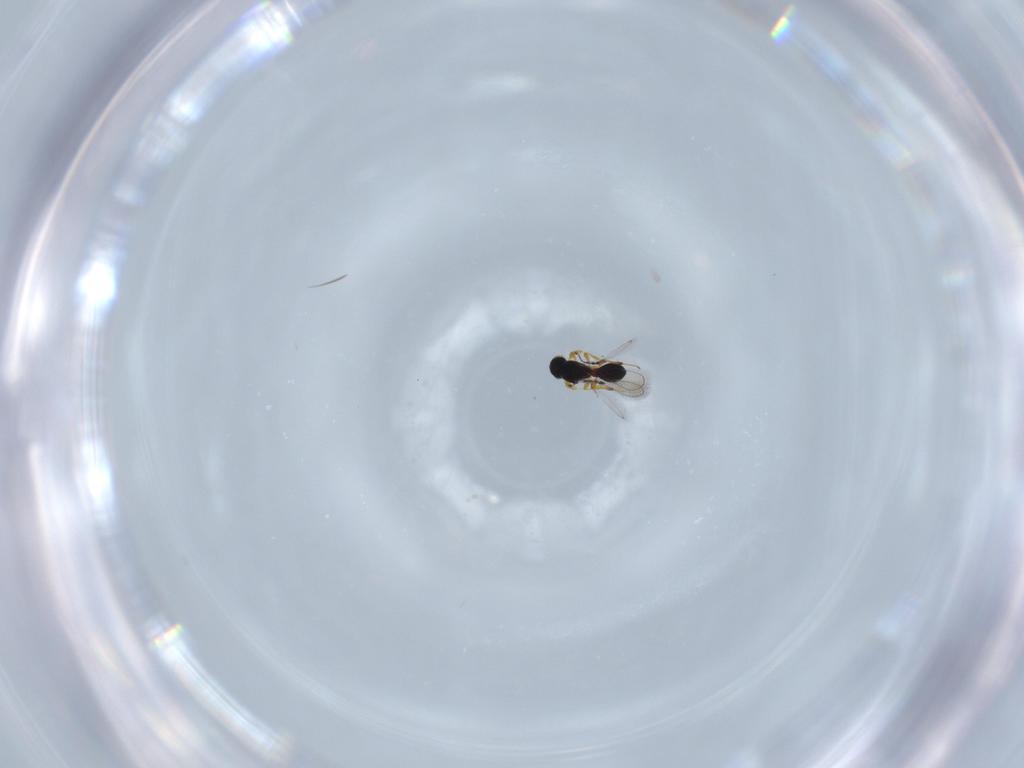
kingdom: Animalia
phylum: Arthropoda
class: Insecta
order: Hymenoptera
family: Platygastridae
